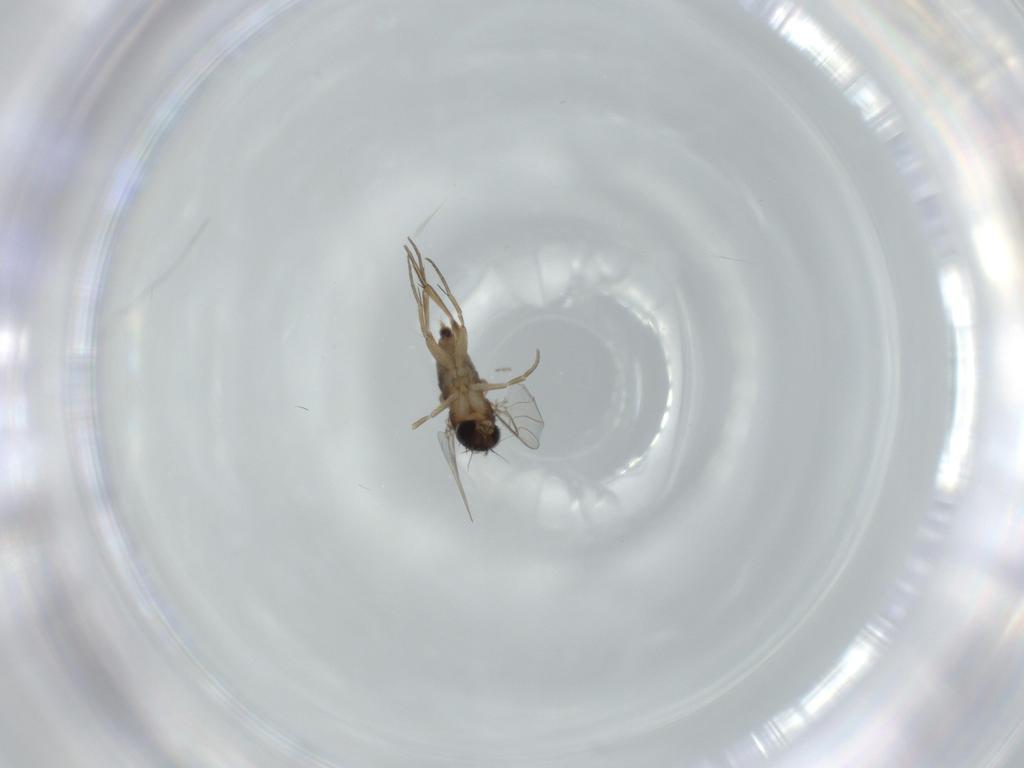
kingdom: Animalia
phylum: Arthropoda
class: Insecta
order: Diptera
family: Phoridae
